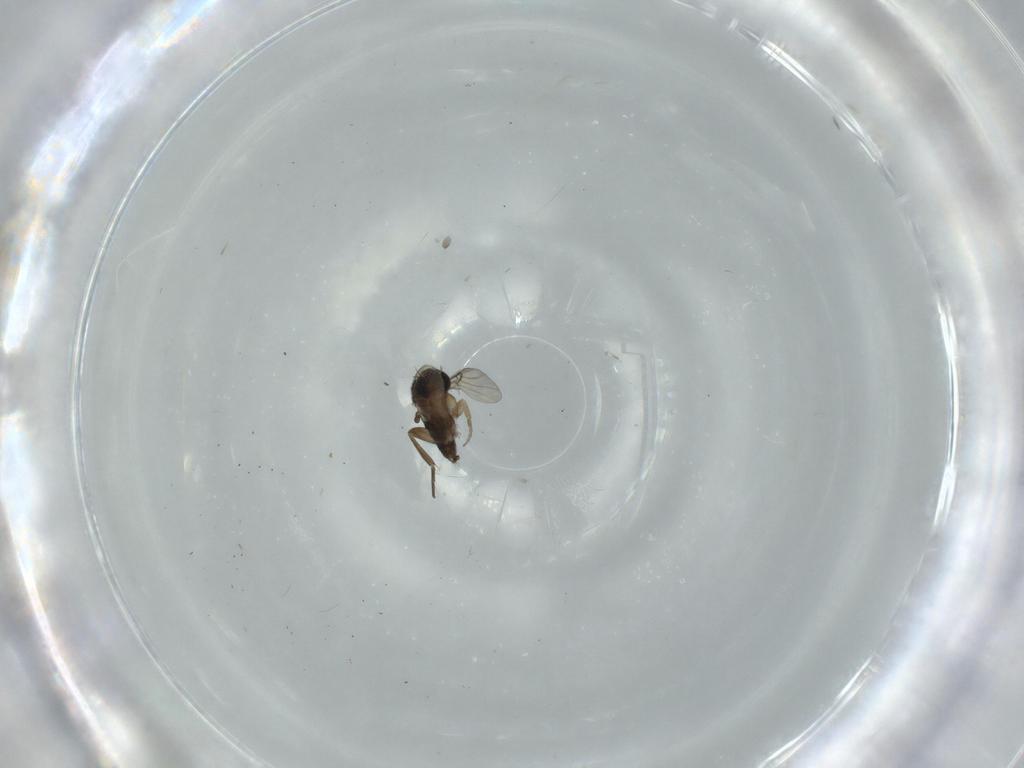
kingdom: Animalia
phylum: Arthropoda
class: Insecta
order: Diptera
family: Phoridae
